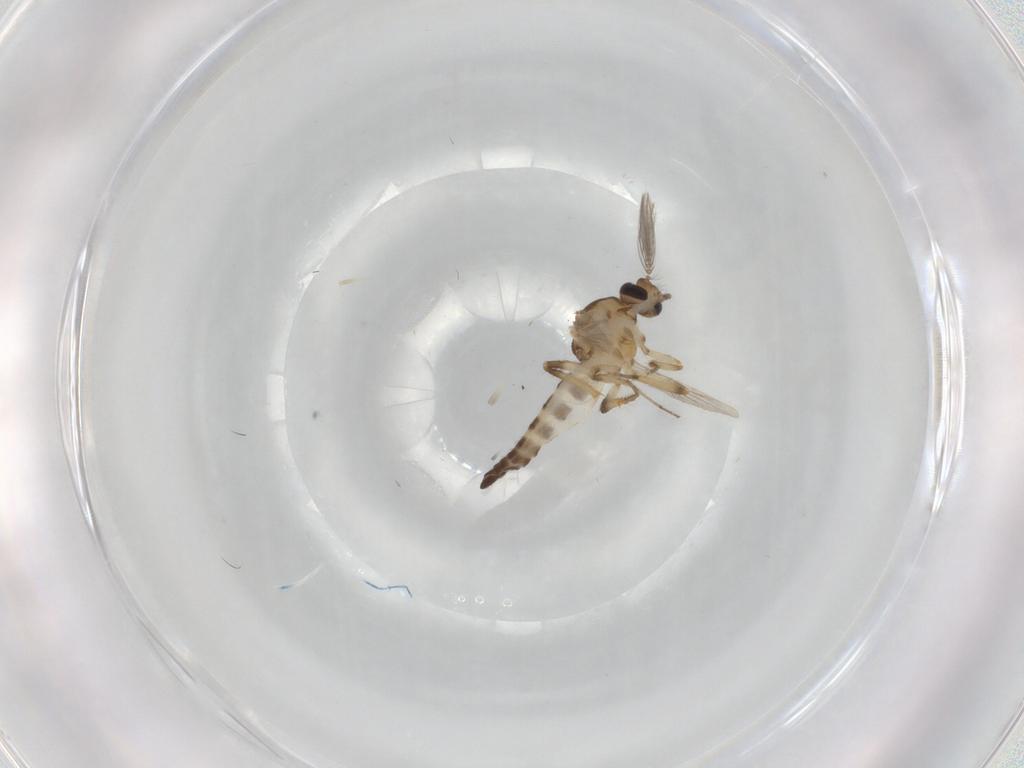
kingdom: Animalia
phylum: Arthropoda
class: Insecta
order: Diptera
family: Ceratopogonidae
